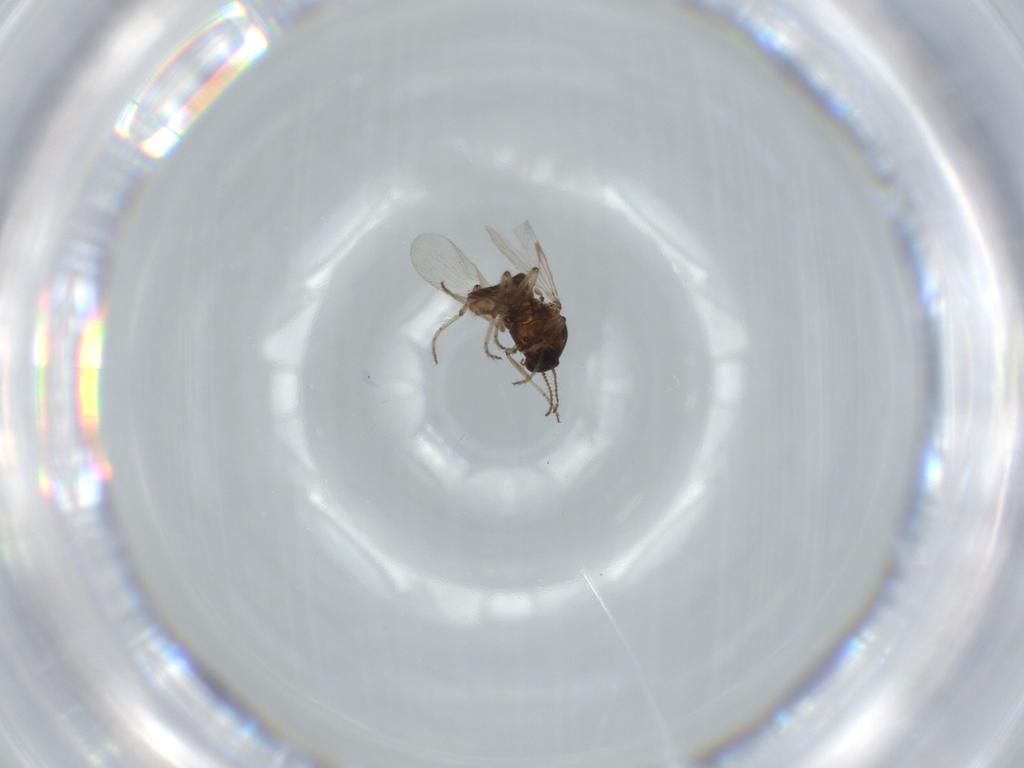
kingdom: Animalia
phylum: Arthropoda
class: Insecta
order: Diptera
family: Chironomidae
